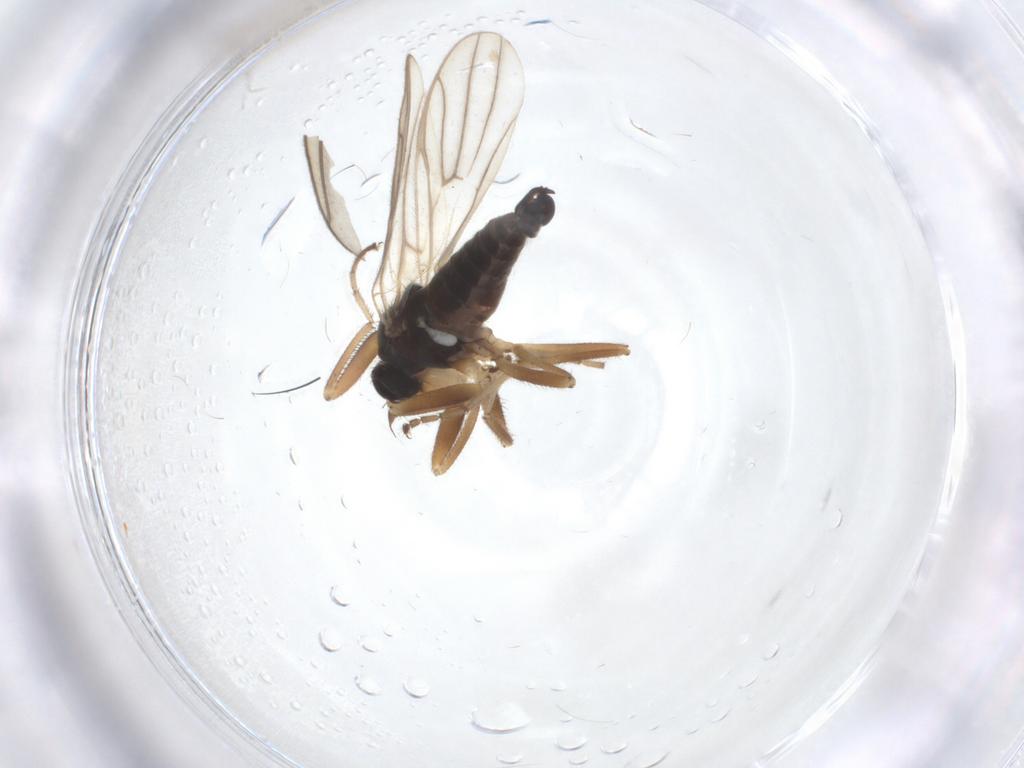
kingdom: Animalia
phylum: Arthropoda
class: Insecta
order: Diptera
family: Hybotidae
